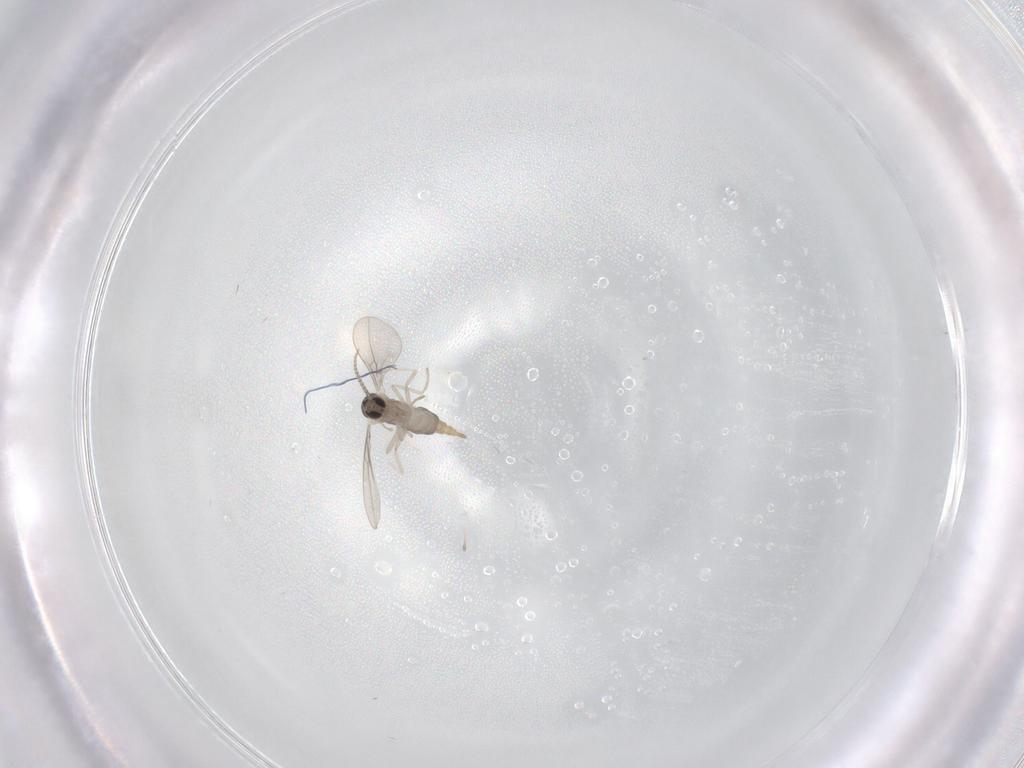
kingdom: Animalia
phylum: Arthropoda
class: Insecta
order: Diptera
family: Cecidomyiidae
